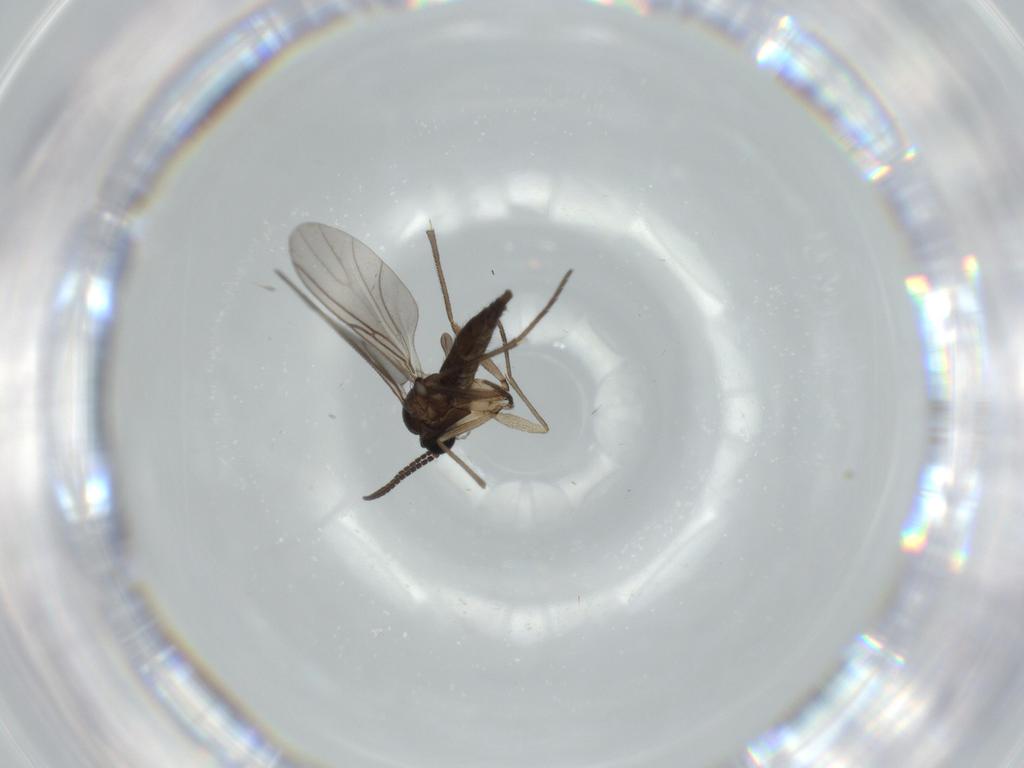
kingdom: Animalia
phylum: Arthropoda
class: Insecta
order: Diptera
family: Sciaridae
